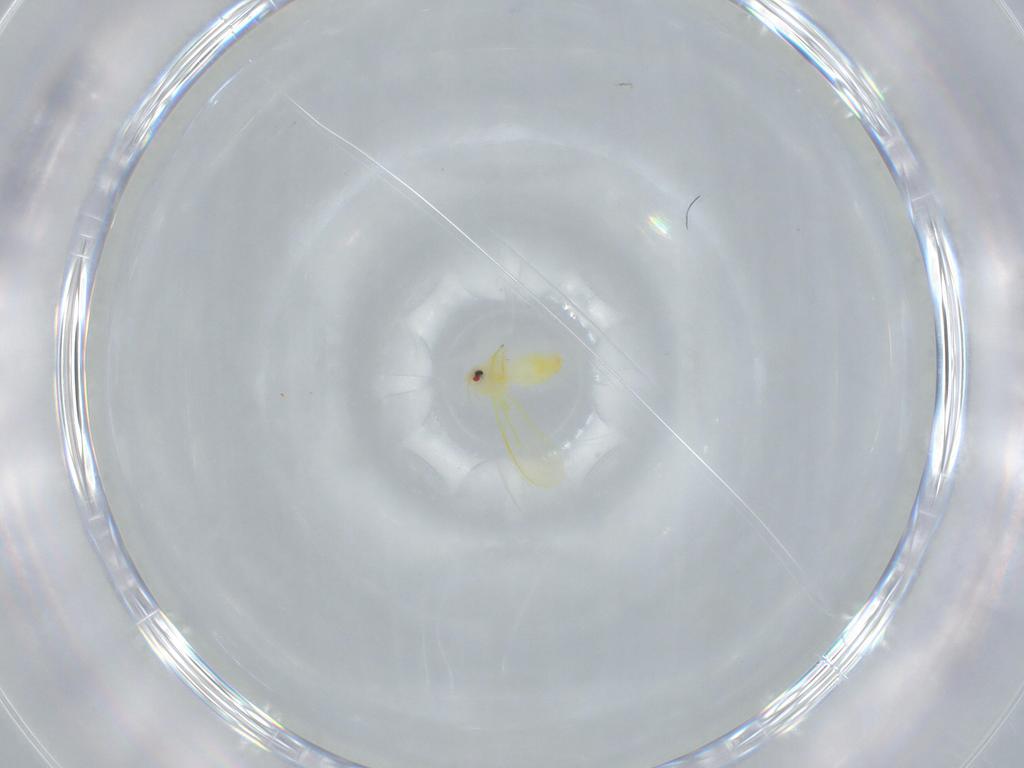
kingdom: Animalia
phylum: Arthropoda
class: Insecta
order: Hemiptera
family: Aleyrodidae
